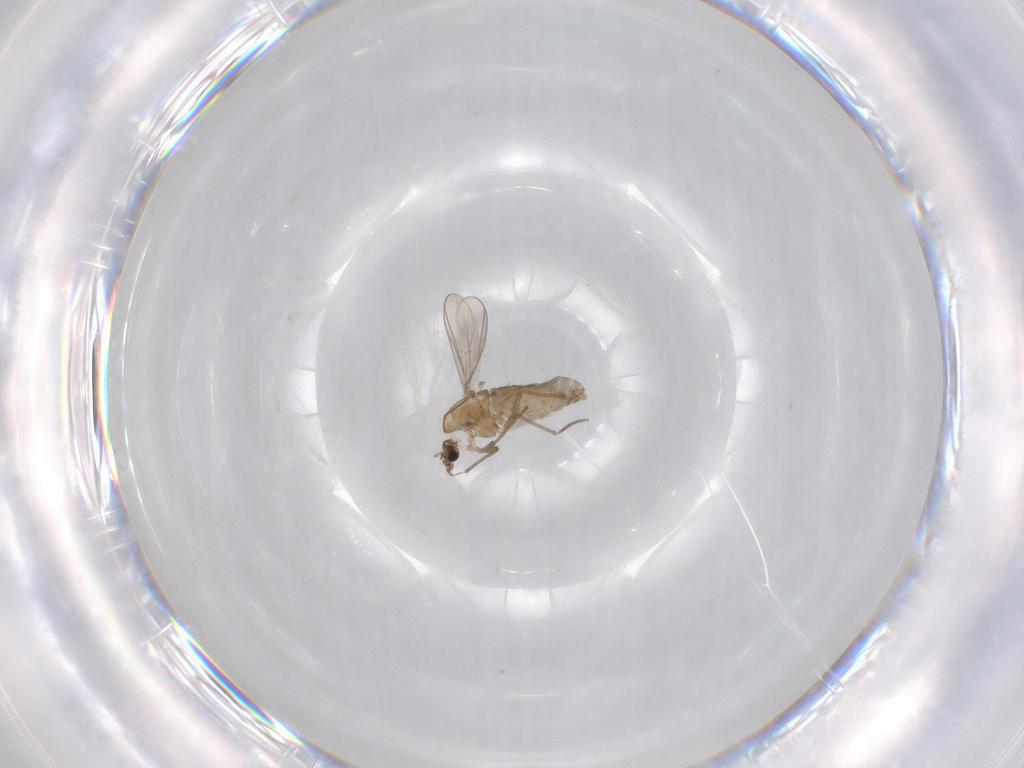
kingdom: Animalia
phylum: Arthropoda
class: Insecta
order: Diptera
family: Chironomidae
